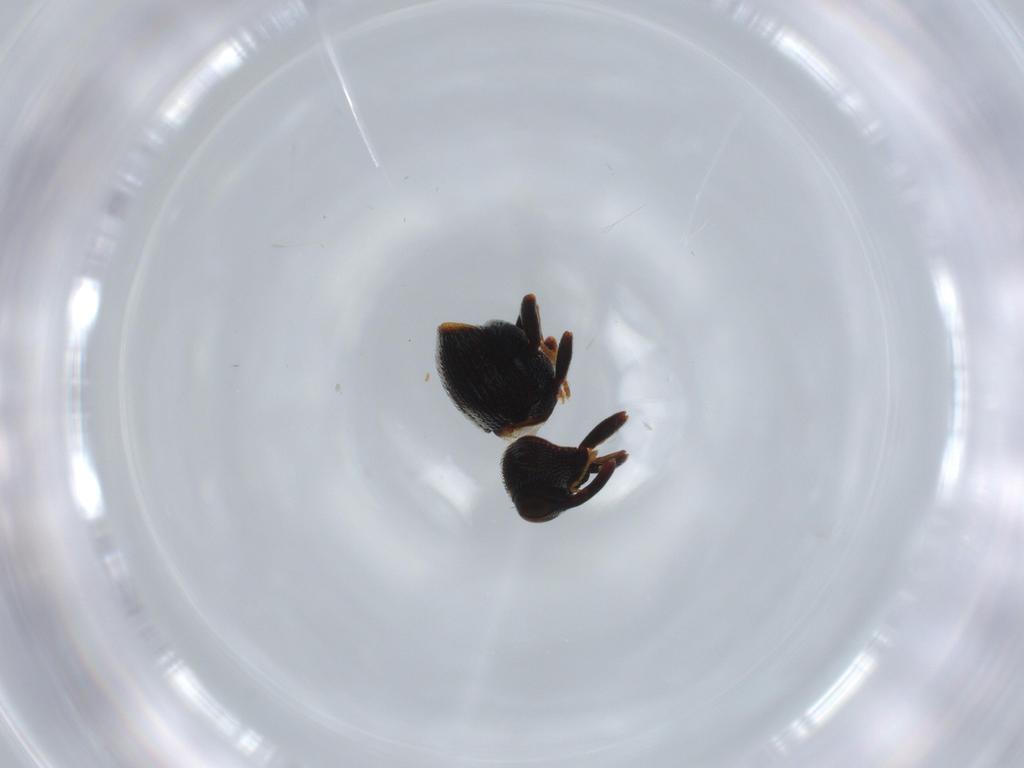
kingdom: Animalia
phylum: Arthropoda
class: Insecta
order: Coleoptera
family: Curculionidae
